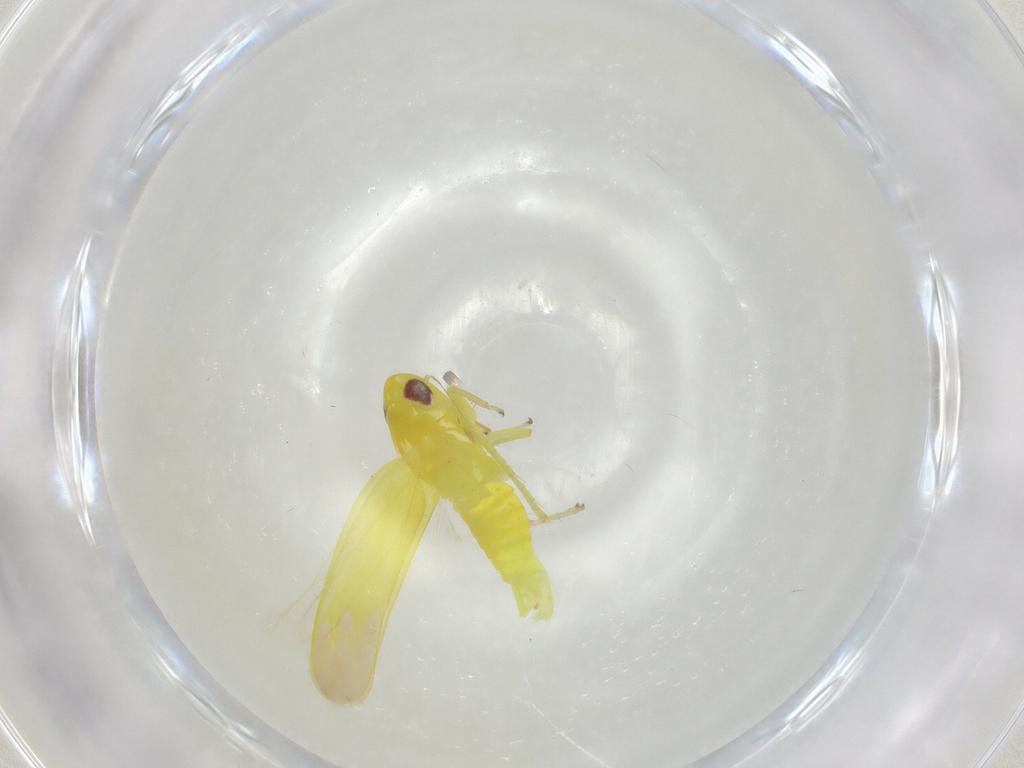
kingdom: Animalia
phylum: Arthropoda
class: Insecta
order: Hemiptera
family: Cicadellidae
